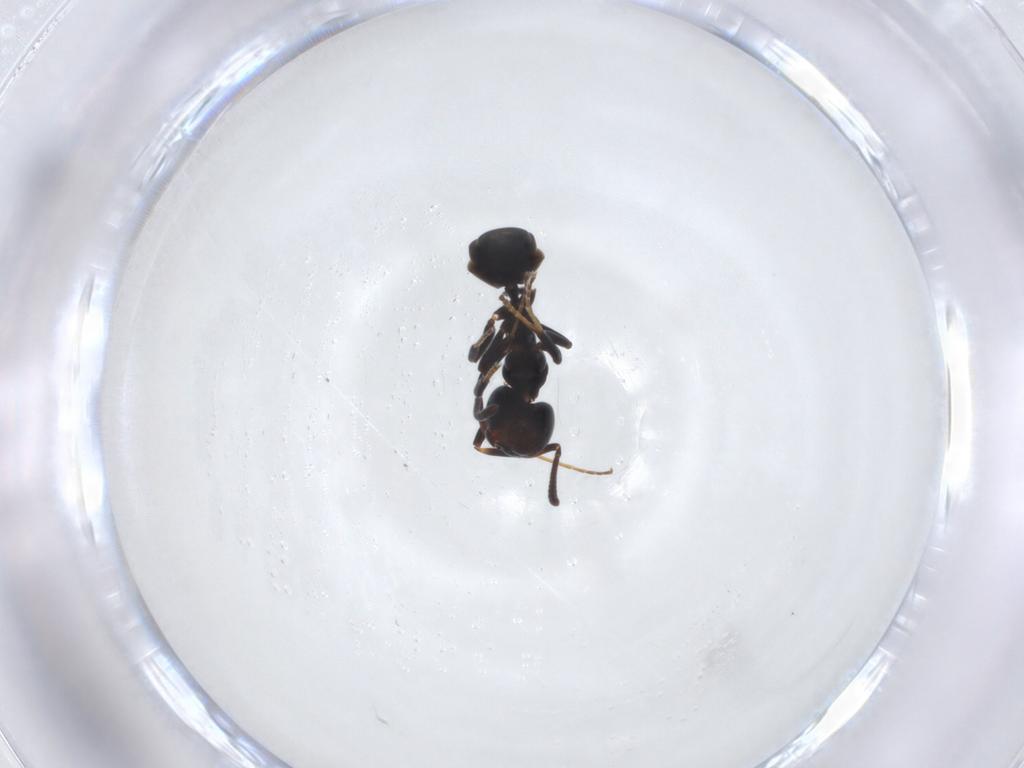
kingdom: Animalia
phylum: Arthropoda
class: Insecta
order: Hymenoptera
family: Formicidae
